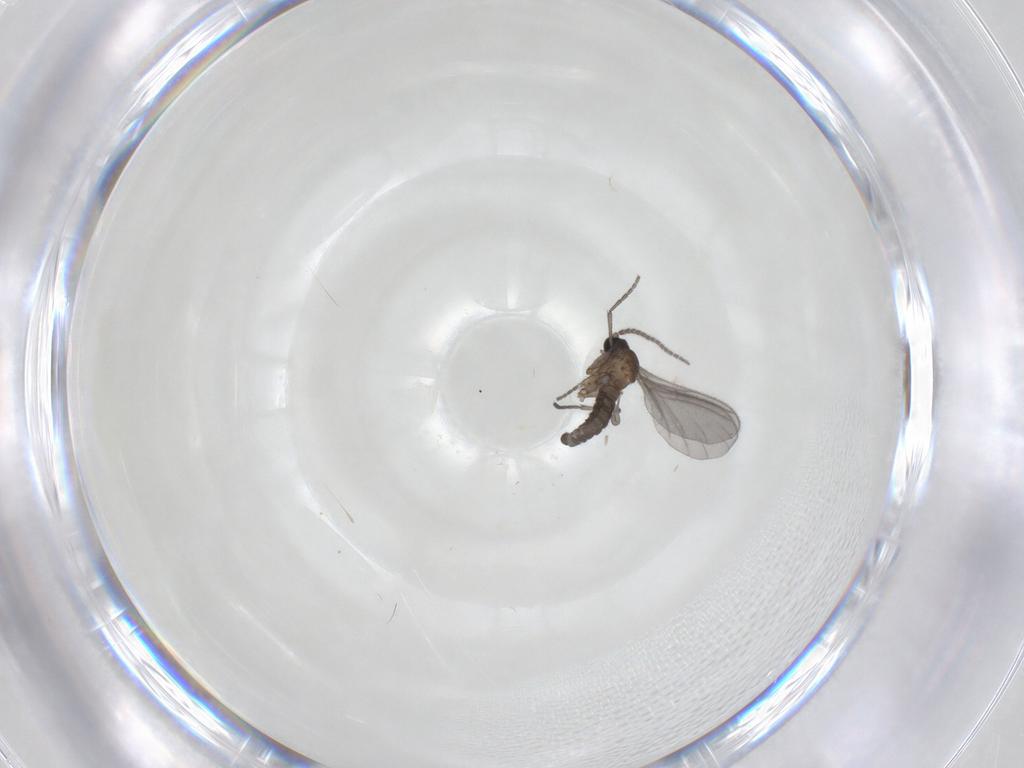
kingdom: Animalia
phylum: Arthropoda
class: Insecta
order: Diptera
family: Sciaridae
